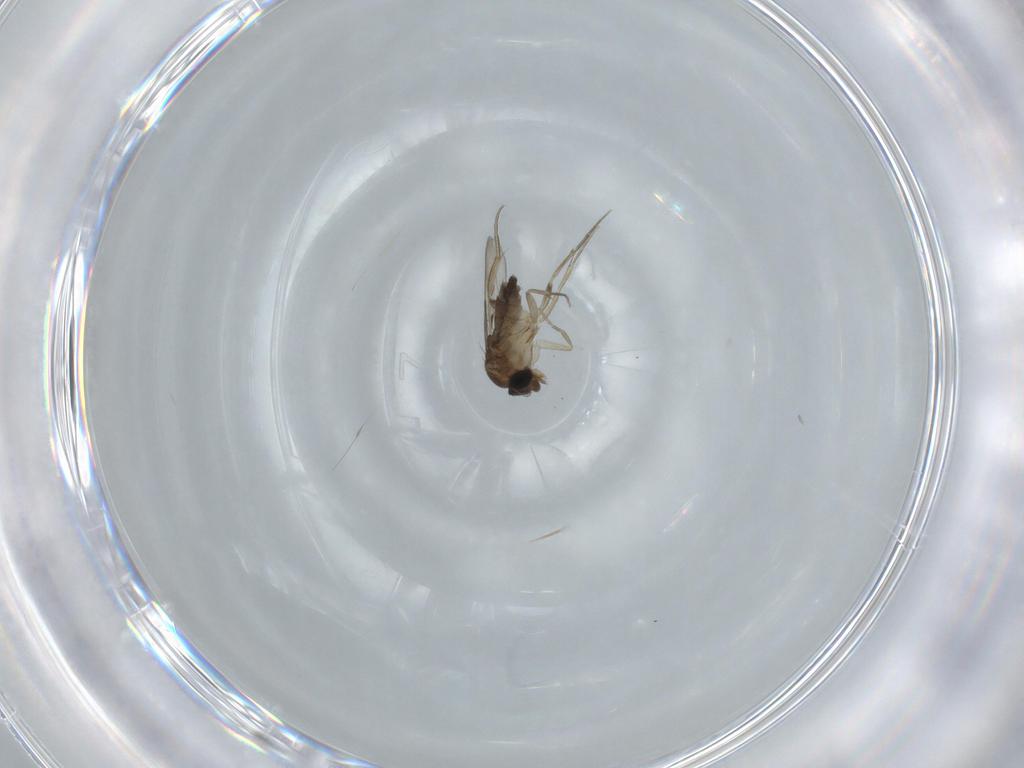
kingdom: Animalia
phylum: Arthropoda
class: Insecta
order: Diptera
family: Phoridae
